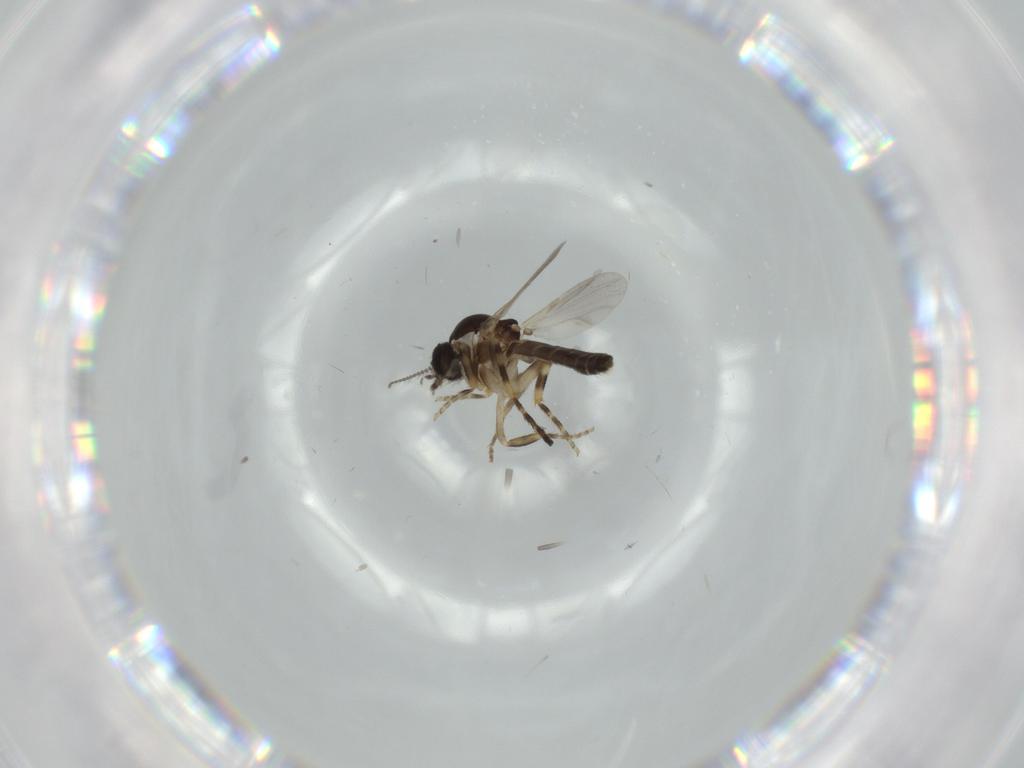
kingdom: Animalia
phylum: Arthropoda
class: Insecta
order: Diptera
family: Ceratopogonidae
